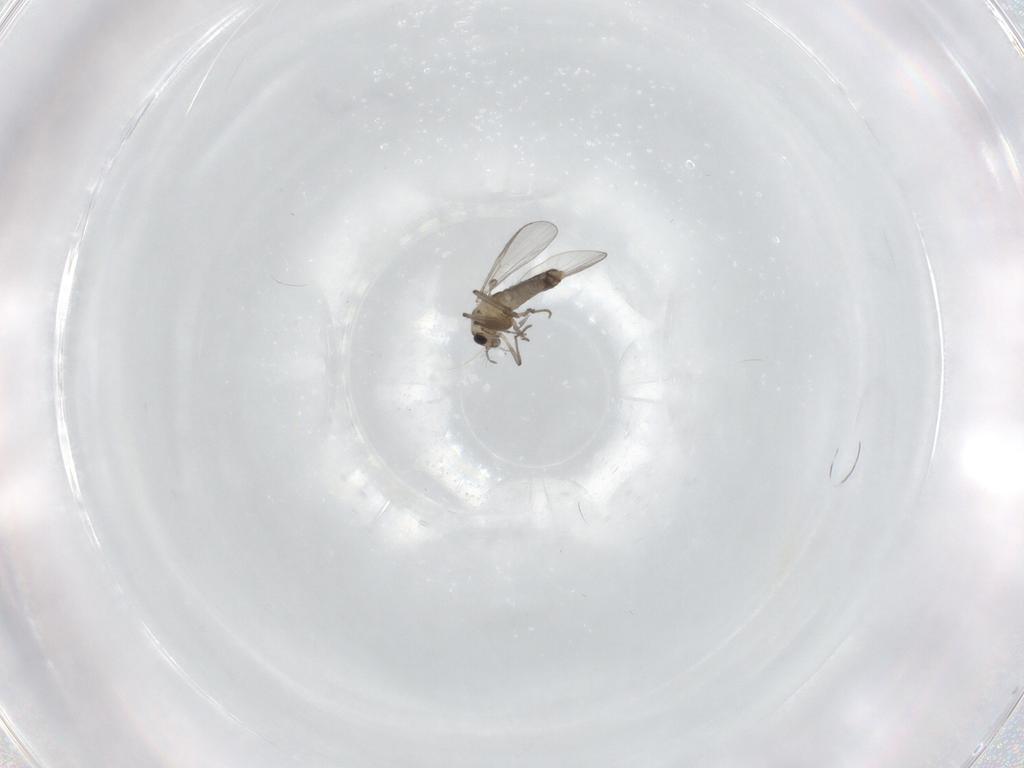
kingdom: Animalia
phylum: Arthropoda
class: Insecta
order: Diptera
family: Chironomidae
